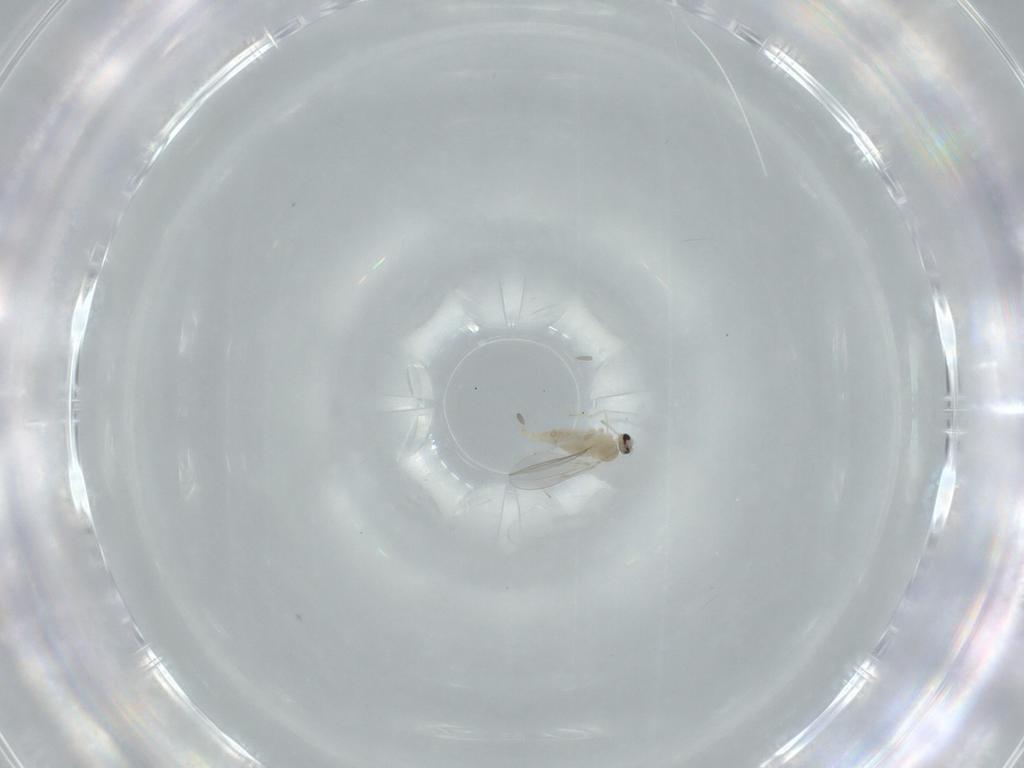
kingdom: Animalia
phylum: Arthropoda
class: Insecta
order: Diptera
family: Cecidomyiidae
